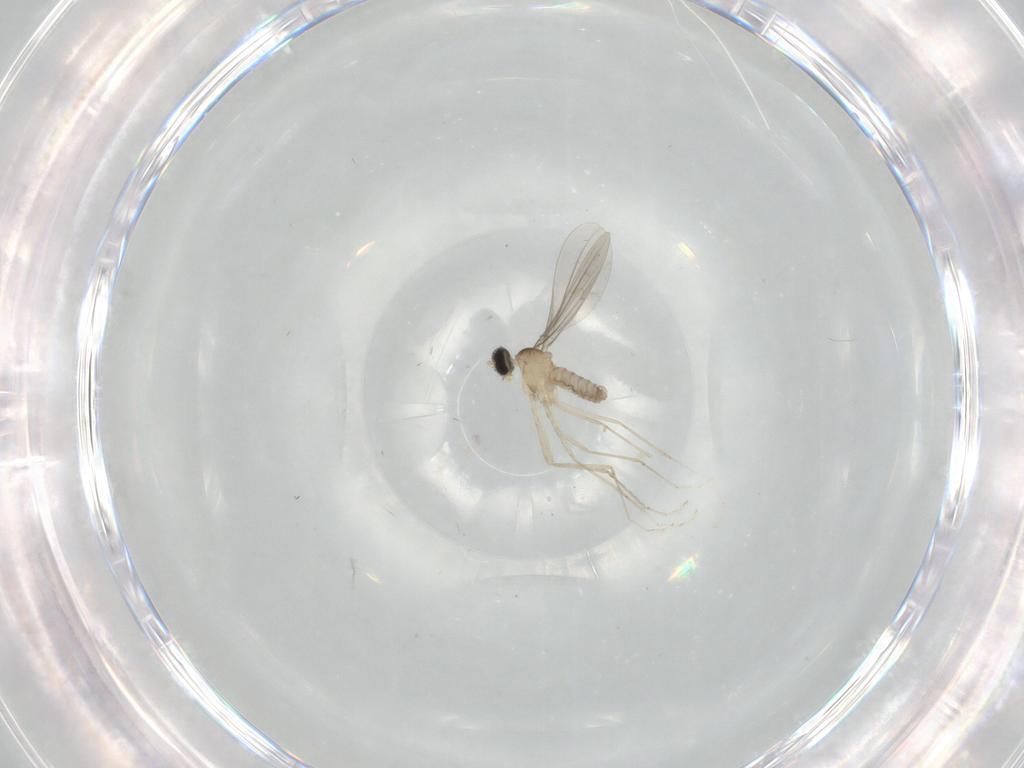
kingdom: Animalia
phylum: Arthropoda
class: Insecta
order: Diptera
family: Cecidomyiidae
